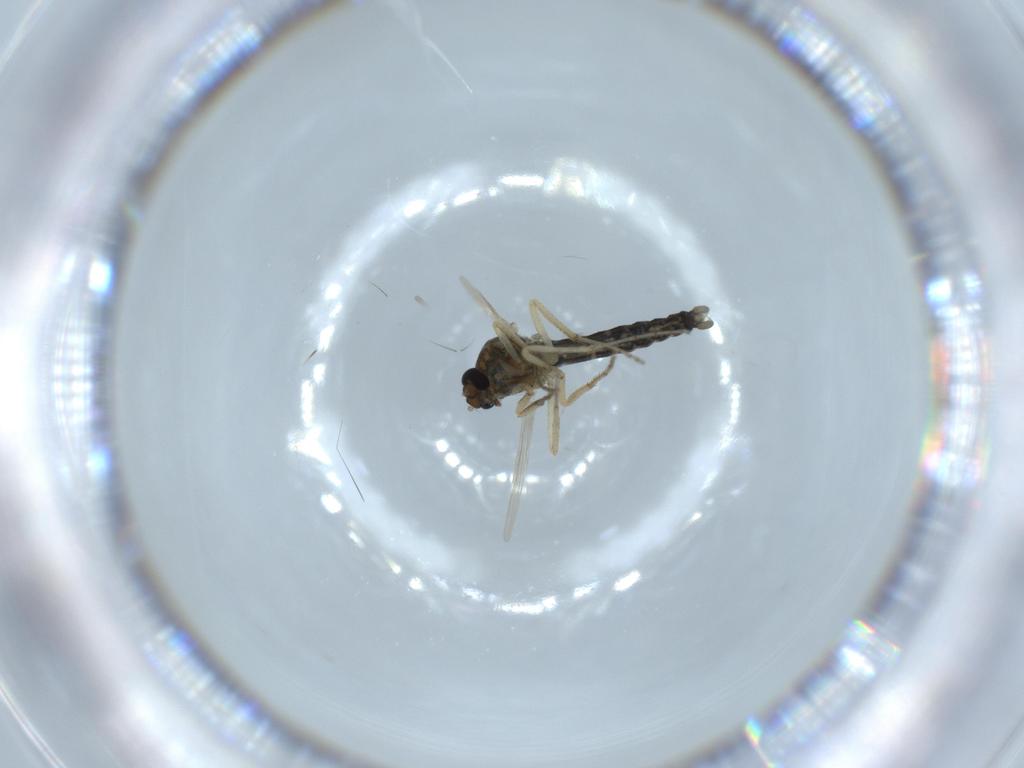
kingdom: Animalia
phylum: Arthropoda
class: Insecta
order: Diptera
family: Ceratopogonidae
